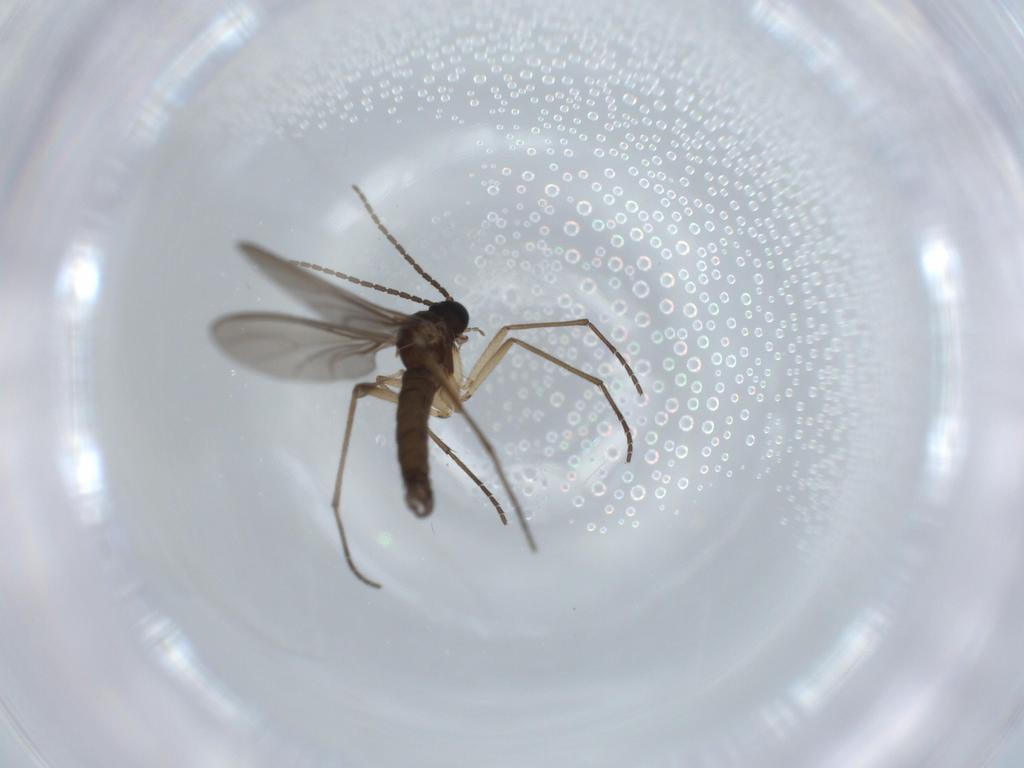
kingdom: Animalia
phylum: Arthropoda
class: Insecta
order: Diptera
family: Sciaridae
